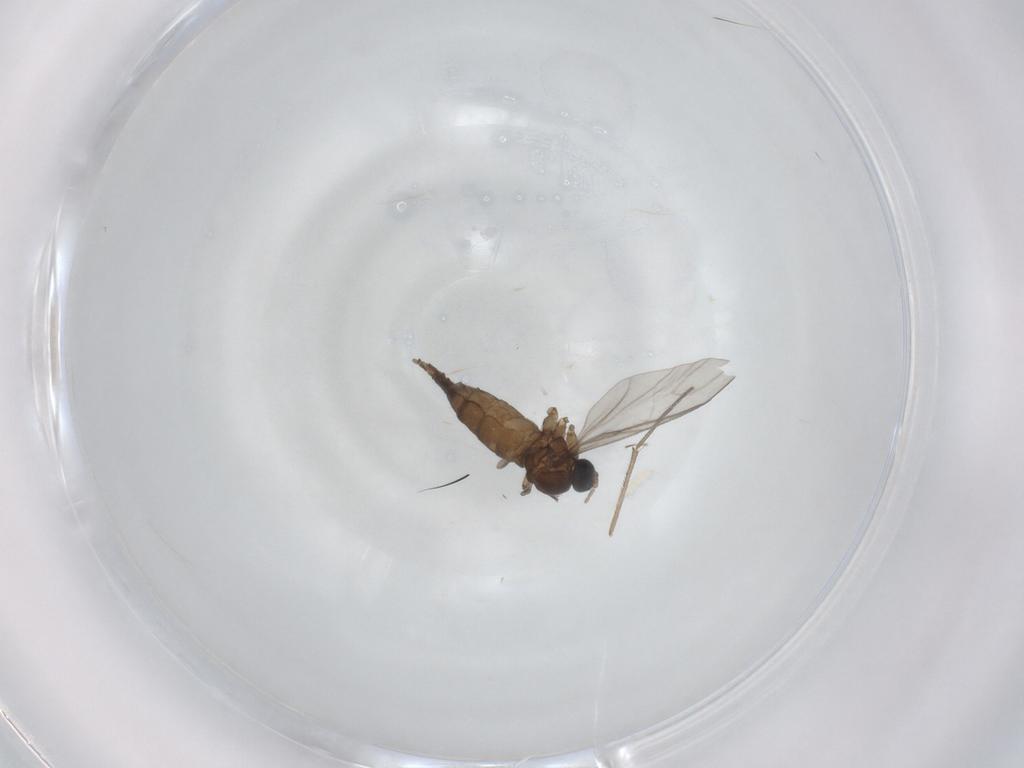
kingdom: Animalia
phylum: Arthropoda
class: Insecta
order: Diptera
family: Sciaridae
